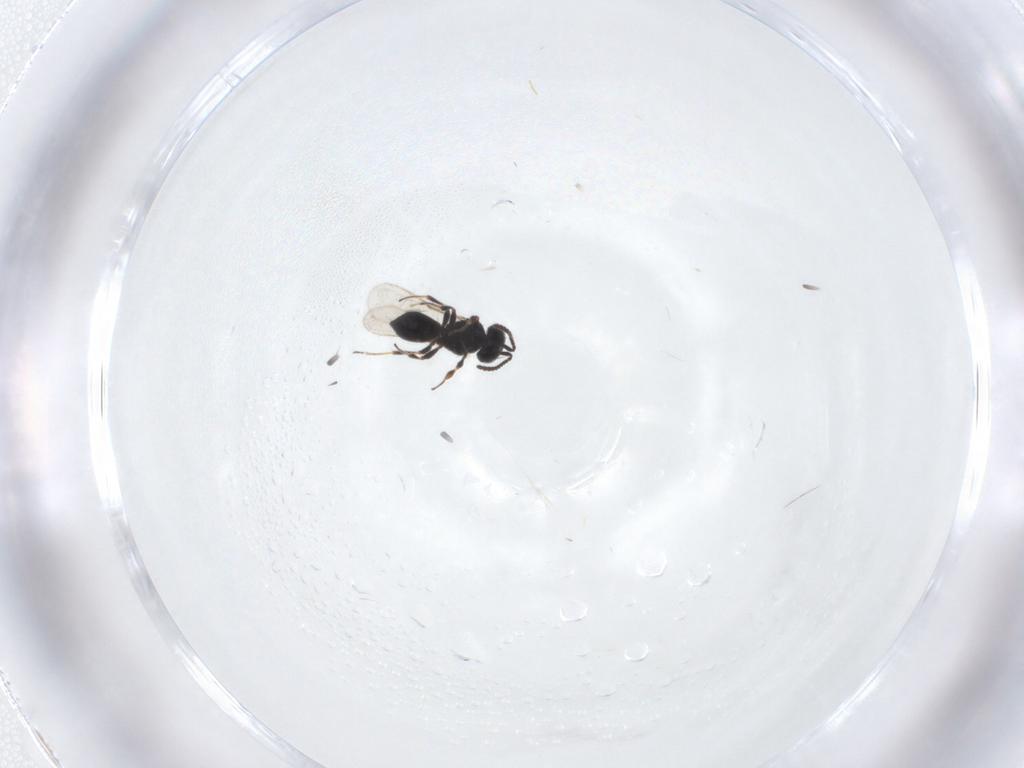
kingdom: Animalia
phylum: Arthropoda
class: Insecta
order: Hymenoptera
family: Scelionidae
